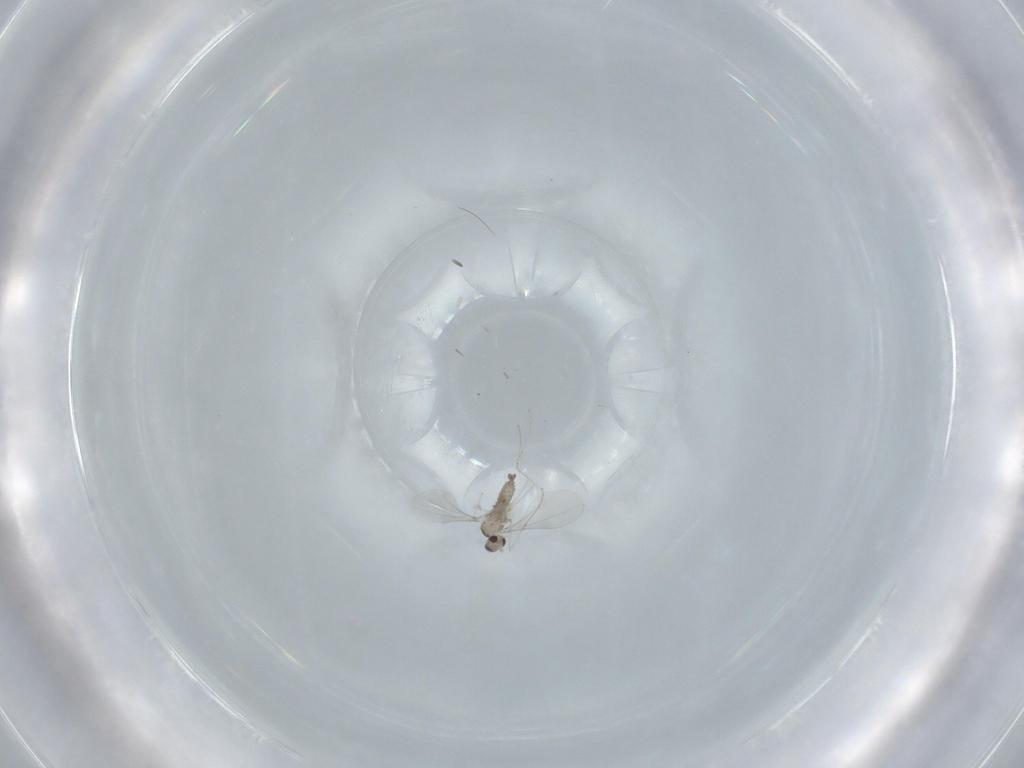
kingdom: Animalia
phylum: Arthropoda
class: Insecta
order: Diptera
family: Cecidomyiidae
